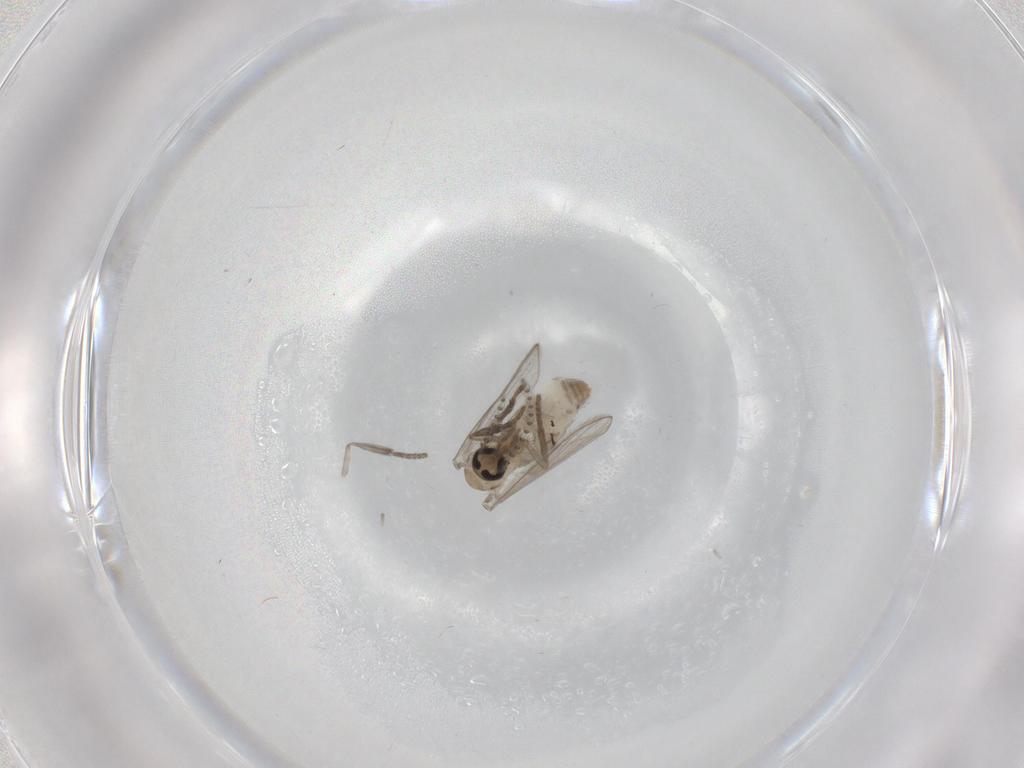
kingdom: Animalia
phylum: Arthropoda
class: Insecta
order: Diptera
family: Psychodidae
